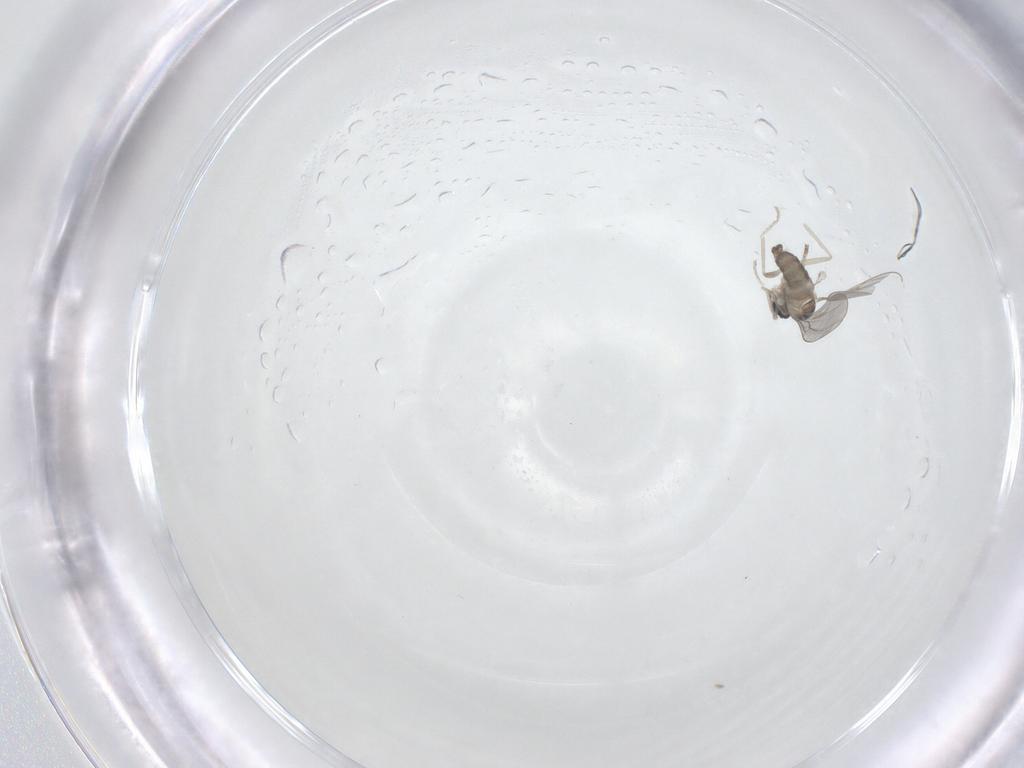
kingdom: Animalia
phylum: Arthropoda
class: Insecta
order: Diptera
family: Cecidomyiidae
